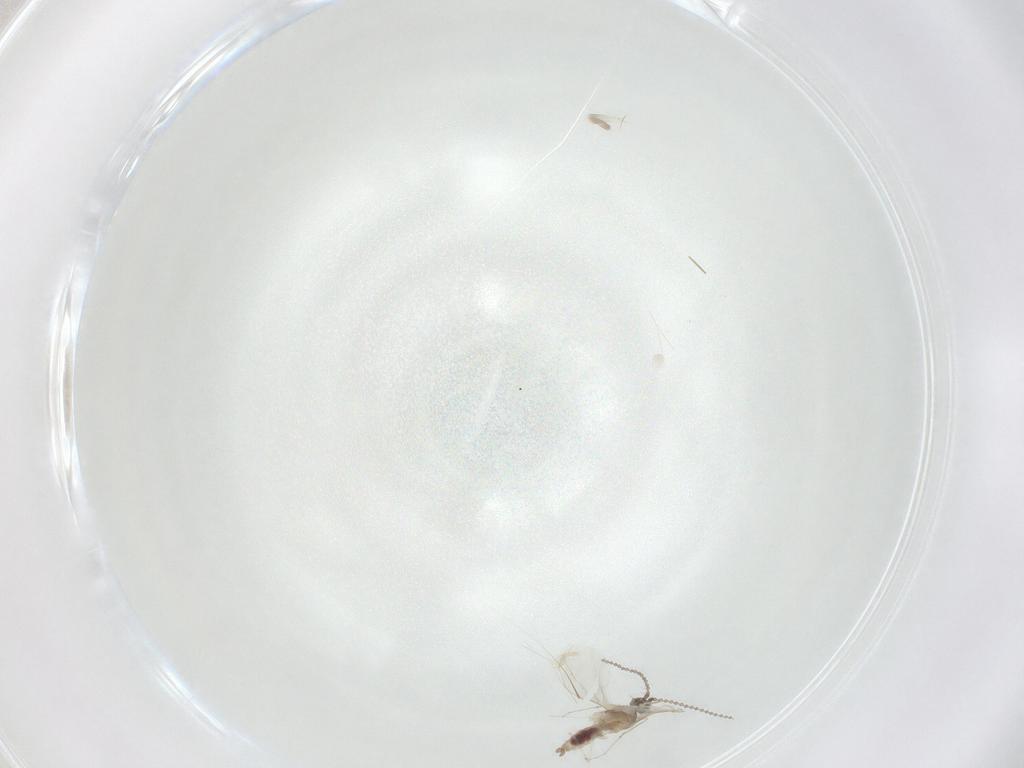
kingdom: Animalia
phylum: Arthropoda
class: Insecta
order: Diptera
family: Cecidomyiidae
